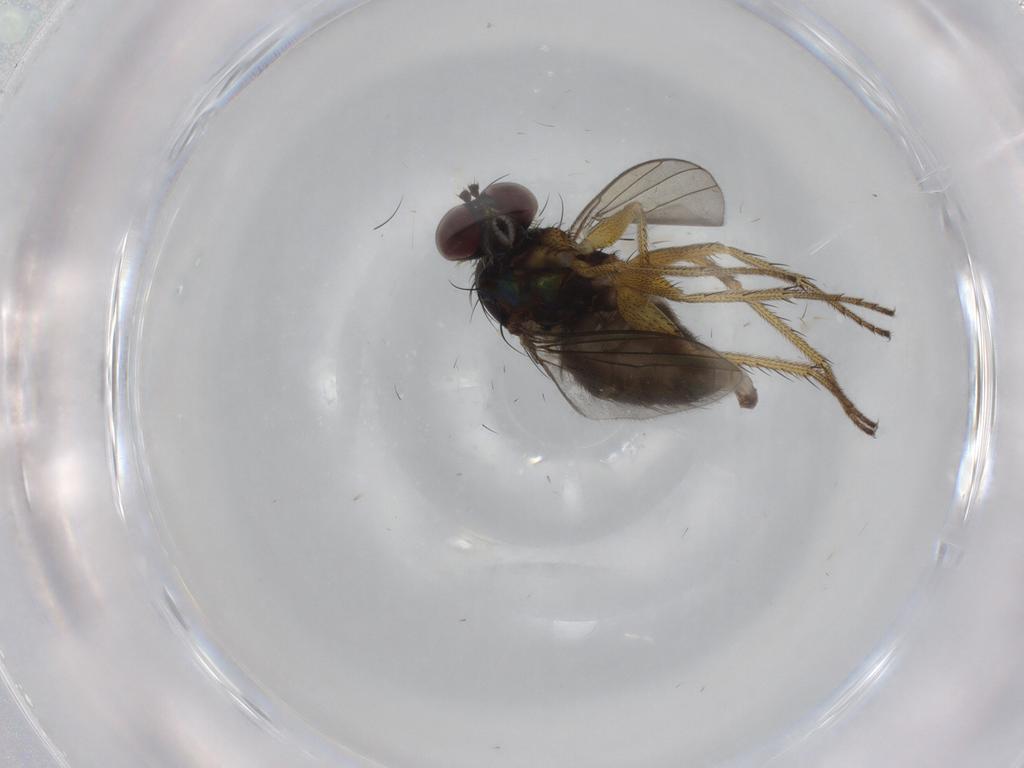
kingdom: Animalia
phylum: Arthropoda
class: Insecta
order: Diptera
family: Dolichopodidae
